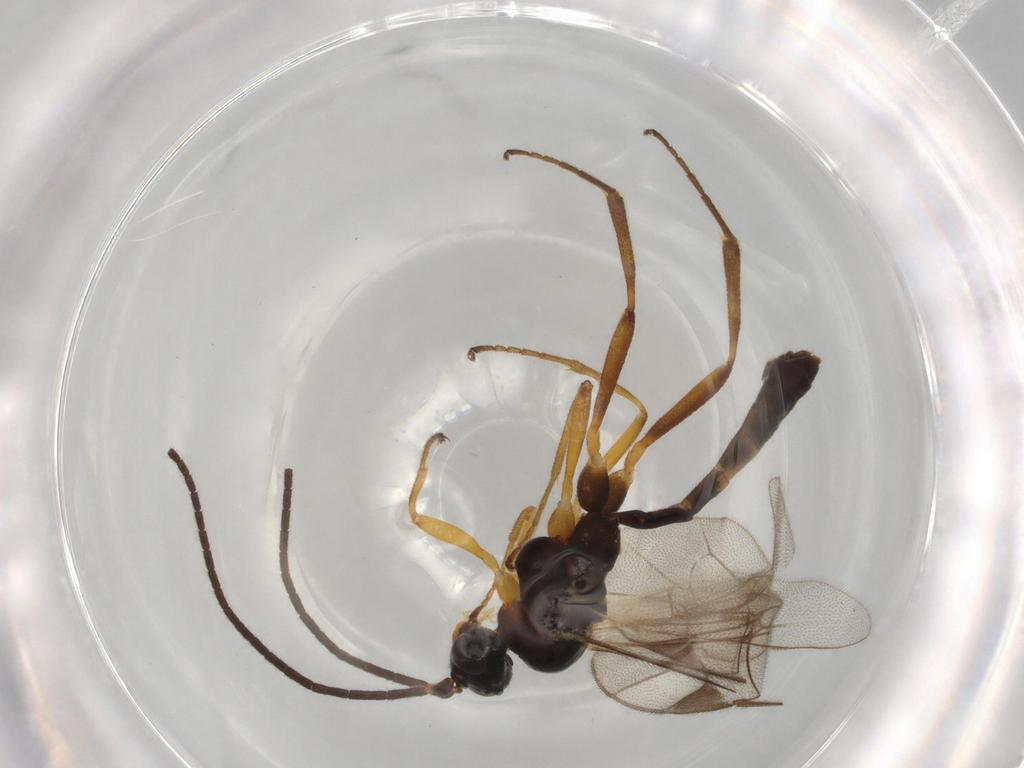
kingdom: Animalia
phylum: Arthropoda
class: Insecta
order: Hymenoptera
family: Ichneumonidae
